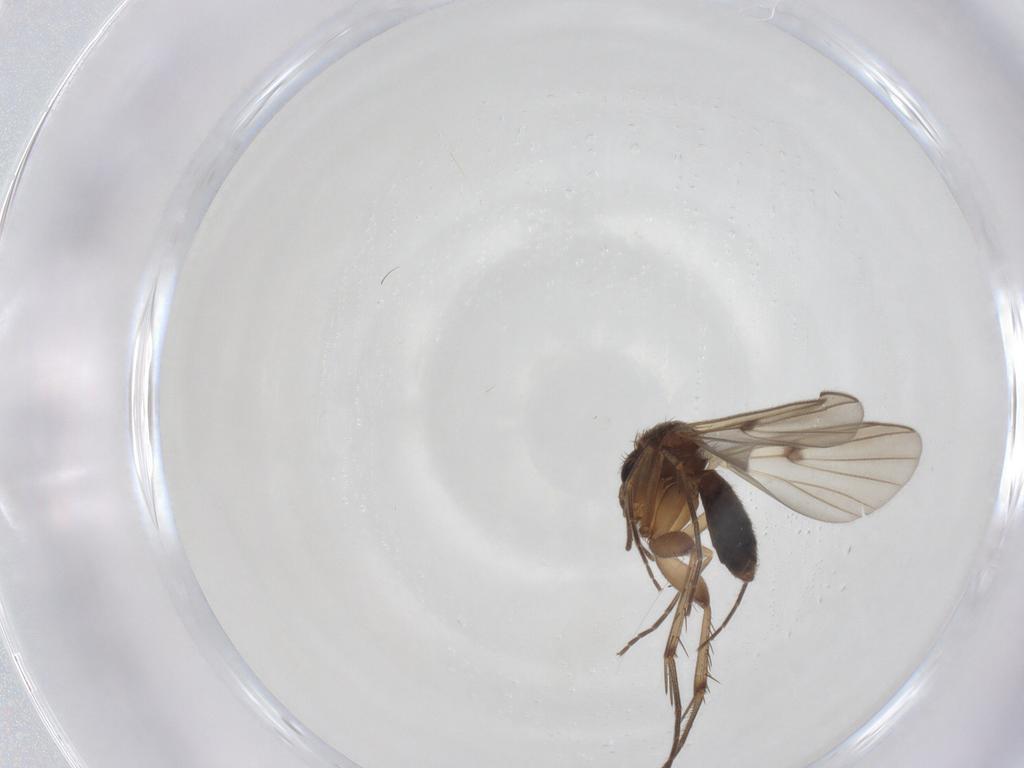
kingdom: Animalia
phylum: Arthropoda
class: Insecta
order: Diptera
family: Chironomidae
